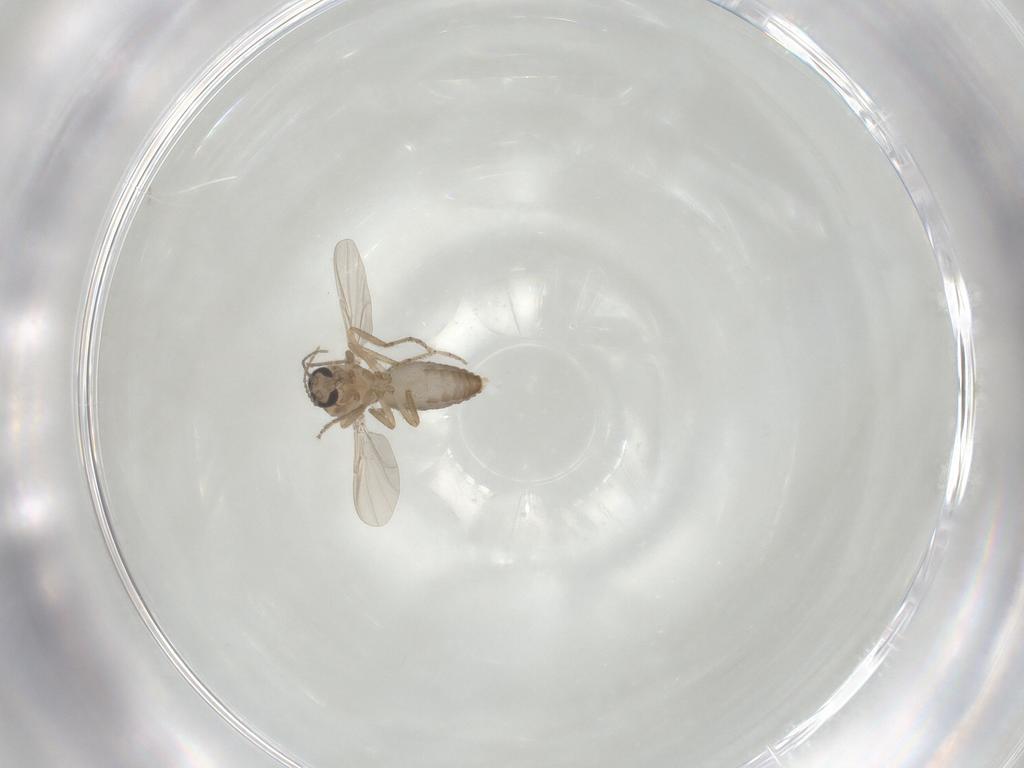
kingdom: Animalia
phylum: Arthropoda
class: Insecta
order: Diptera
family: Ceratopogonidae
